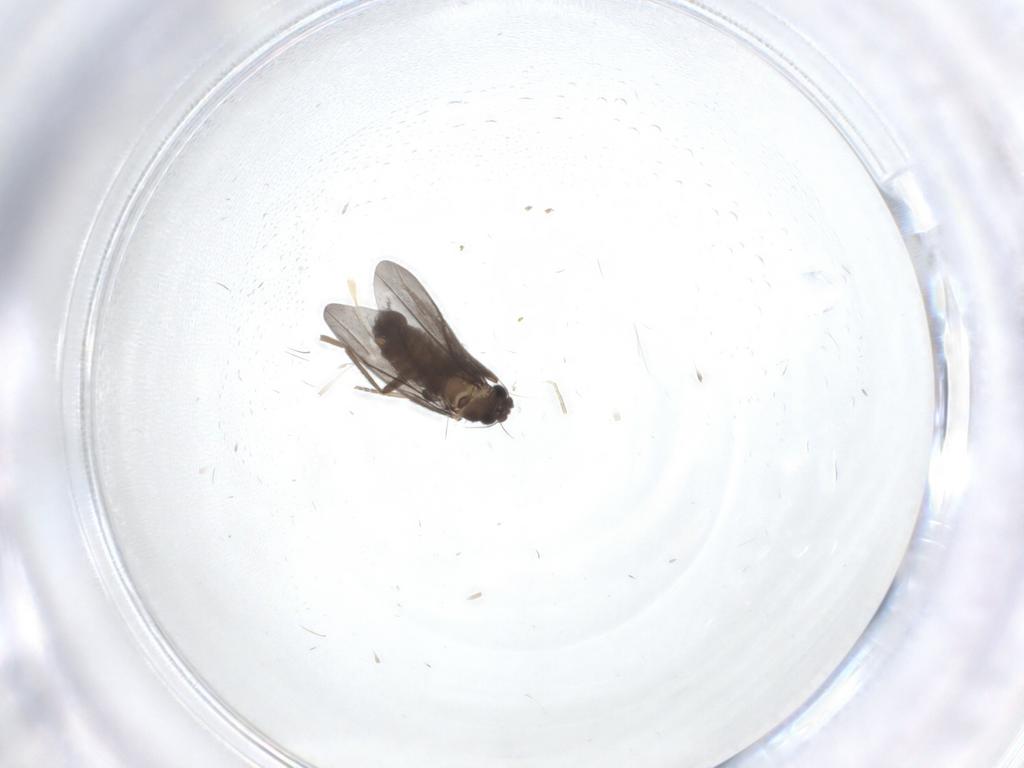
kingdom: Animalia
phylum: Arthropoda
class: Insecta
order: Diptera
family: Phoridae
